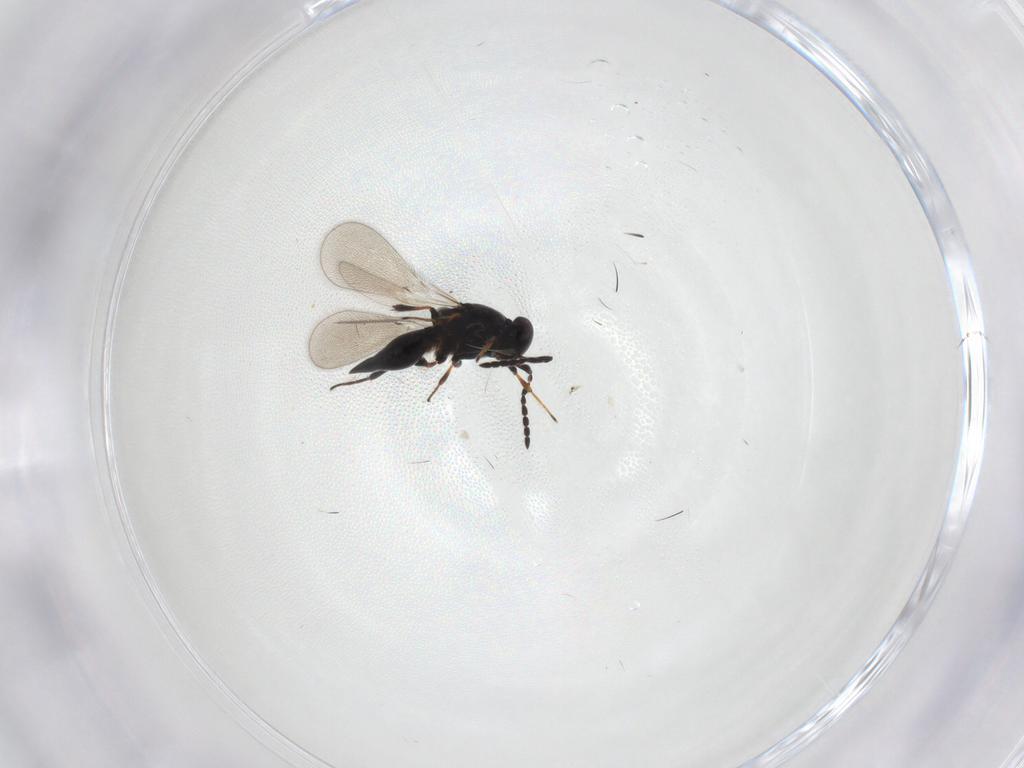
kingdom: Animalia
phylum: Arthropoda
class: Insecta
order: Hymenoptera
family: Platygastridae
